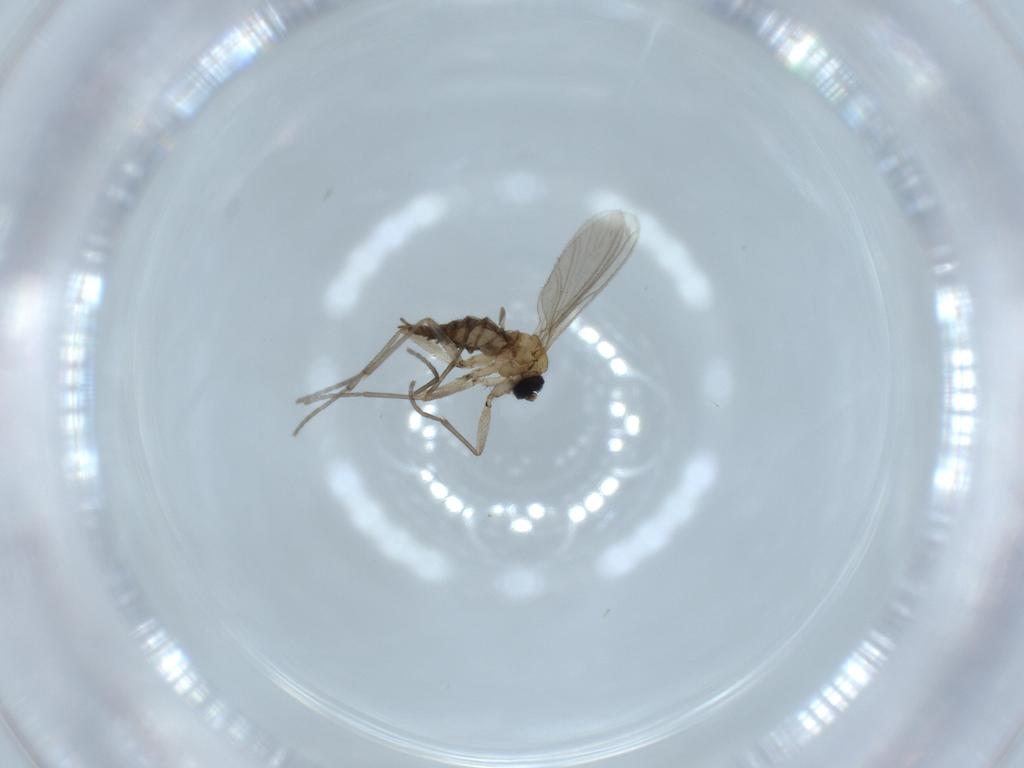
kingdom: Animalia
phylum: Arthropoda
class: Insecta
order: Diptera
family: Sciaridae
